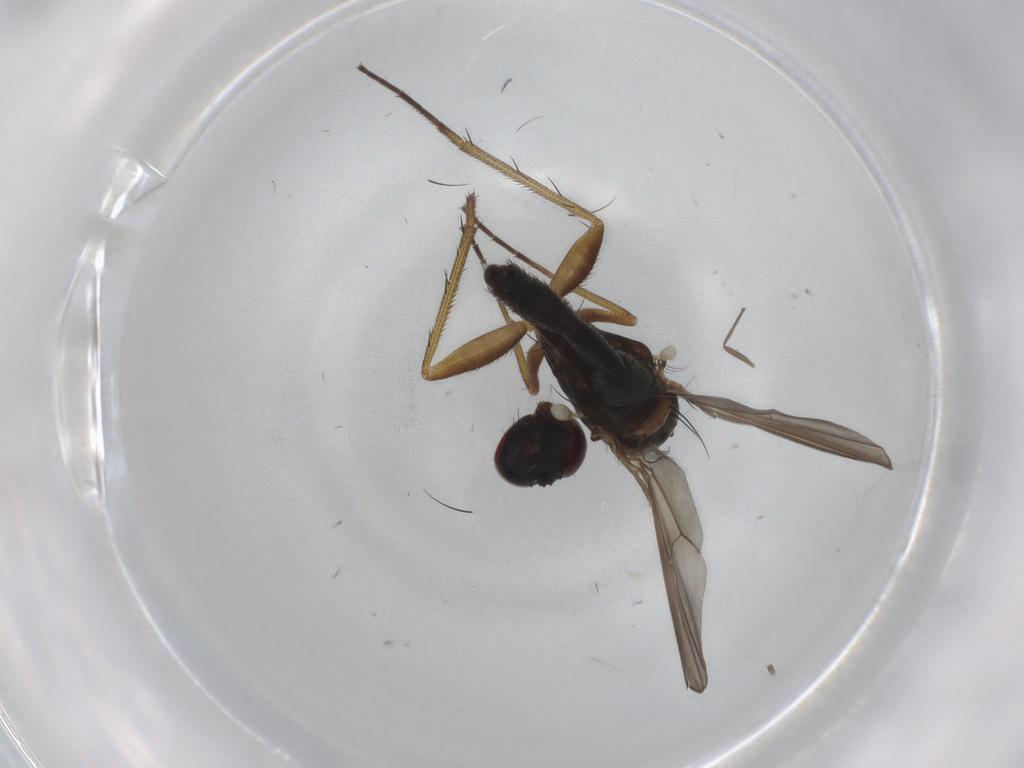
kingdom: Animalia
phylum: Arthropoda
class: Insecta
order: Diptera
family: Dolichopodidae
